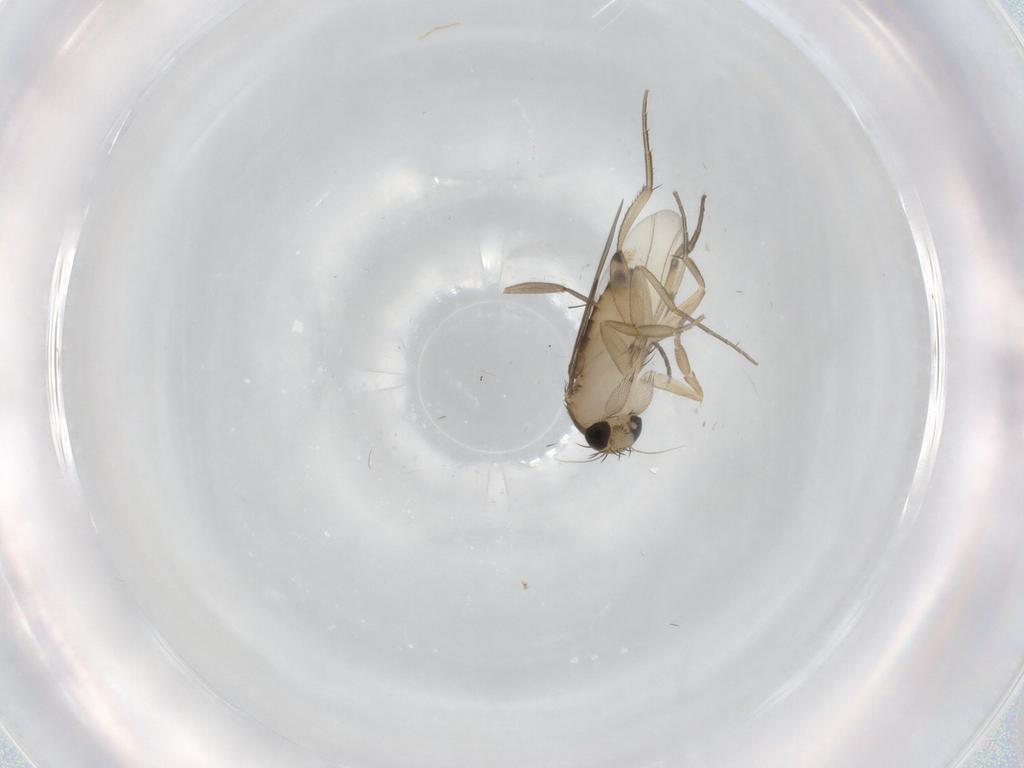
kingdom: Animalia
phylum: Arthropoda
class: Insecta
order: Diptera
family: Phoridae
